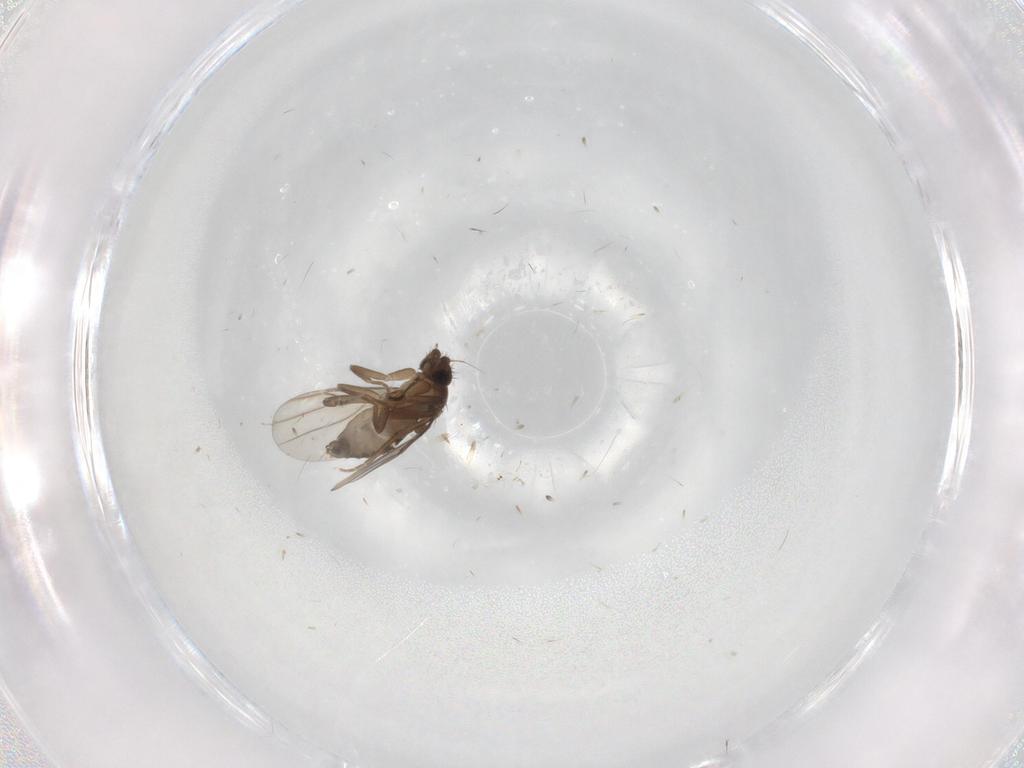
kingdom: Animalia
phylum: Arthropoda
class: Insecta
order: Diptera
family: Phoridae
